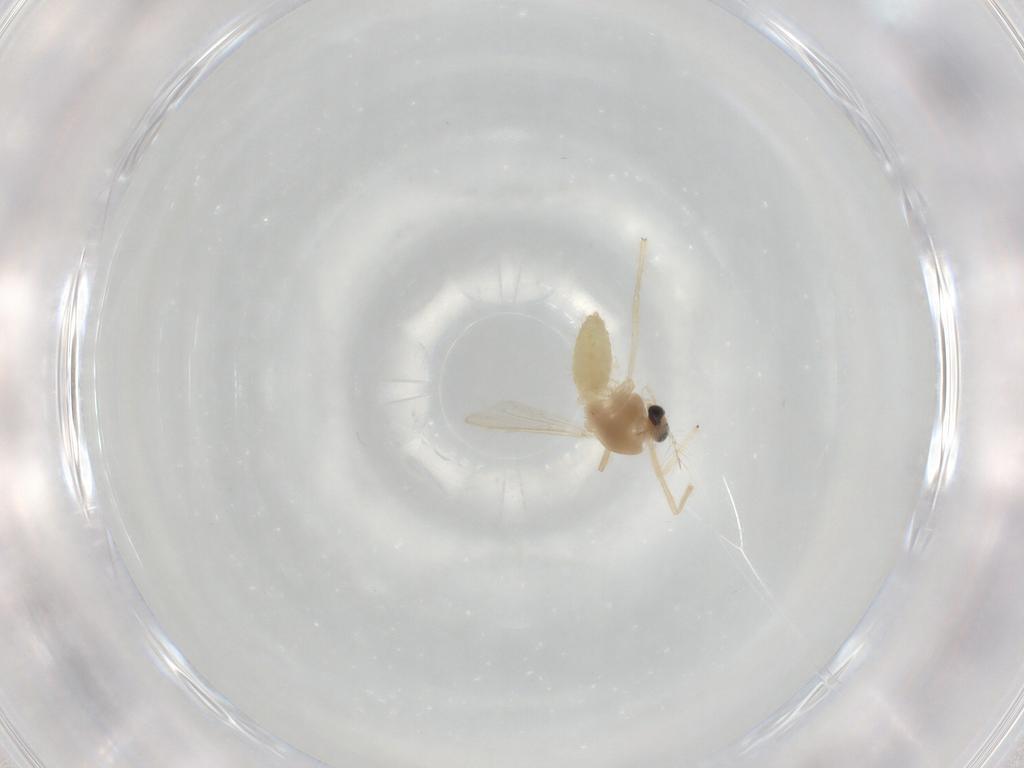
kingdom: Animalia
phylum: Arthropoda
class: Insecta
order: Diptera
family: Chironomidae
